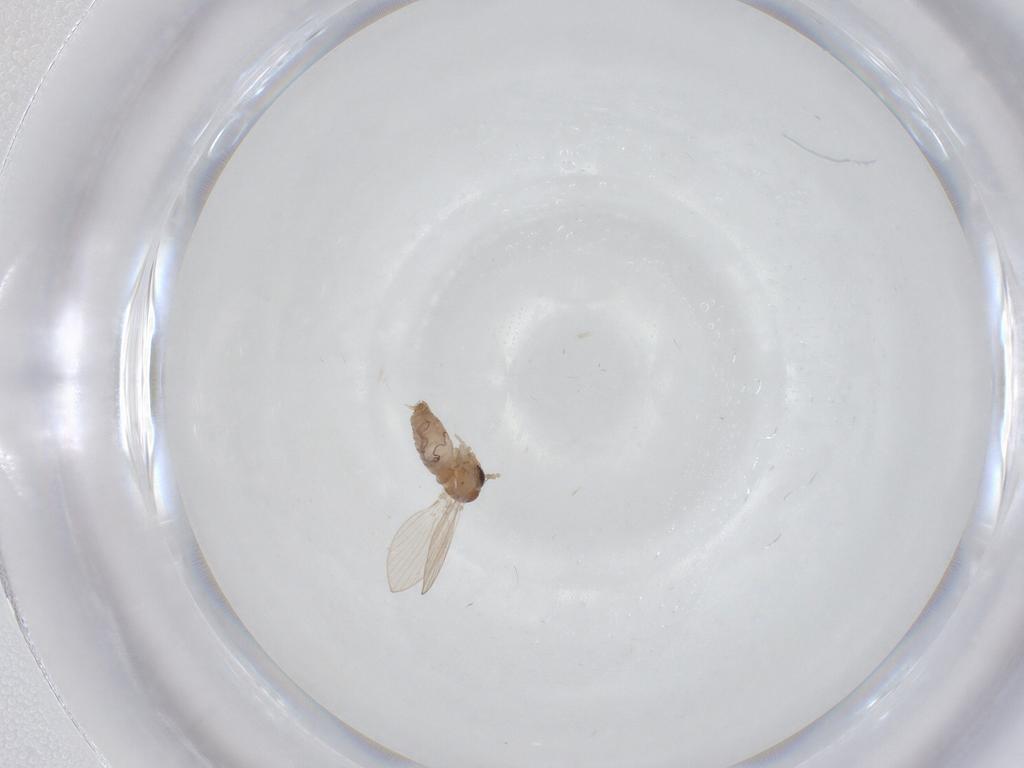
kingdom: Animalia
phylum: Arthropoda
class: Insecta
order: Diptera
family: Psychodidae
